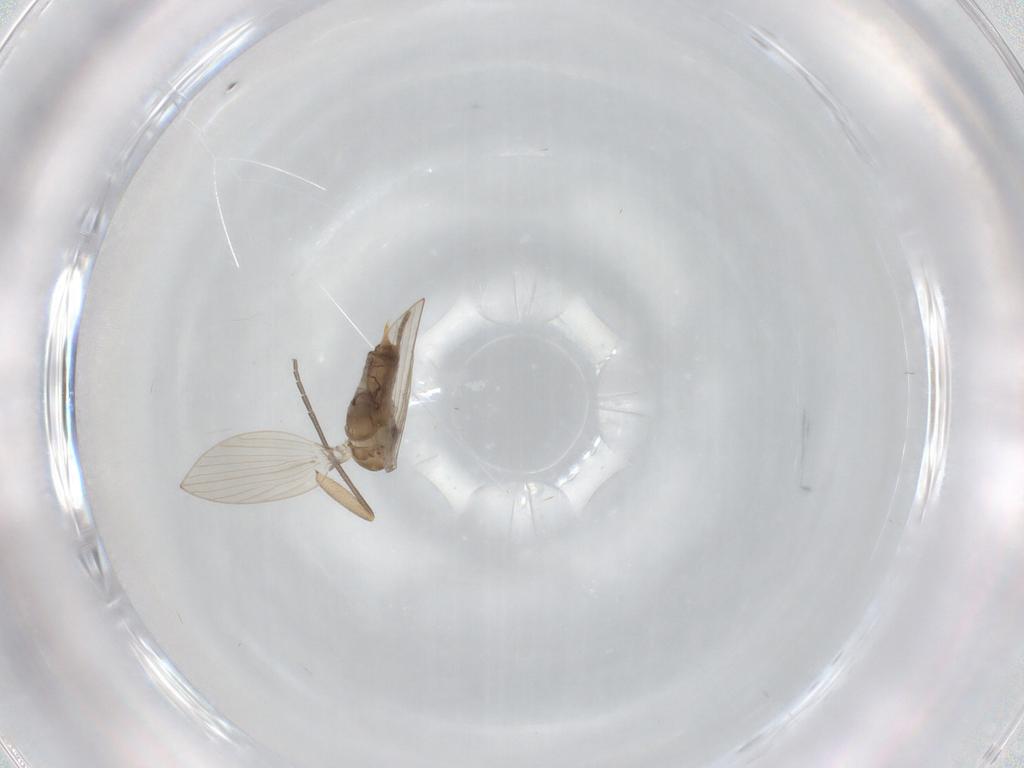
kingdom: Animalia
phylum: Arthropoda
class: Insecta
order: Diptera
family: Psychodidae
